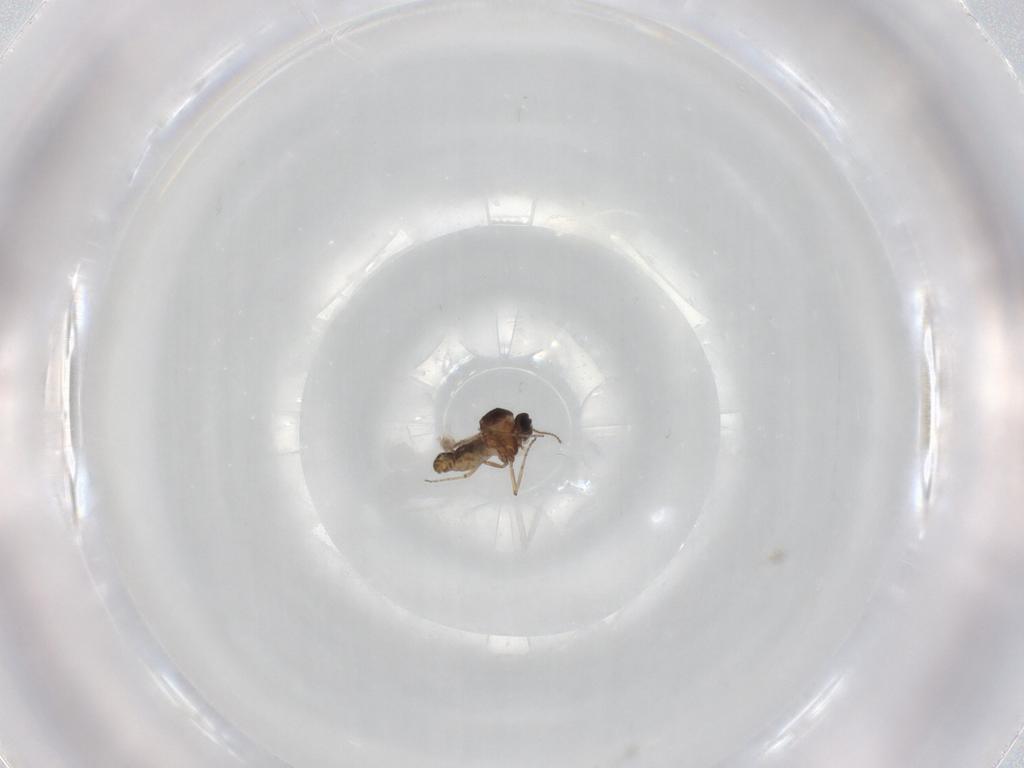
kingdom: Animalia
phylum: Arthropoda
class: Insecta
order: Diptera
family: Ceratopogonidae
